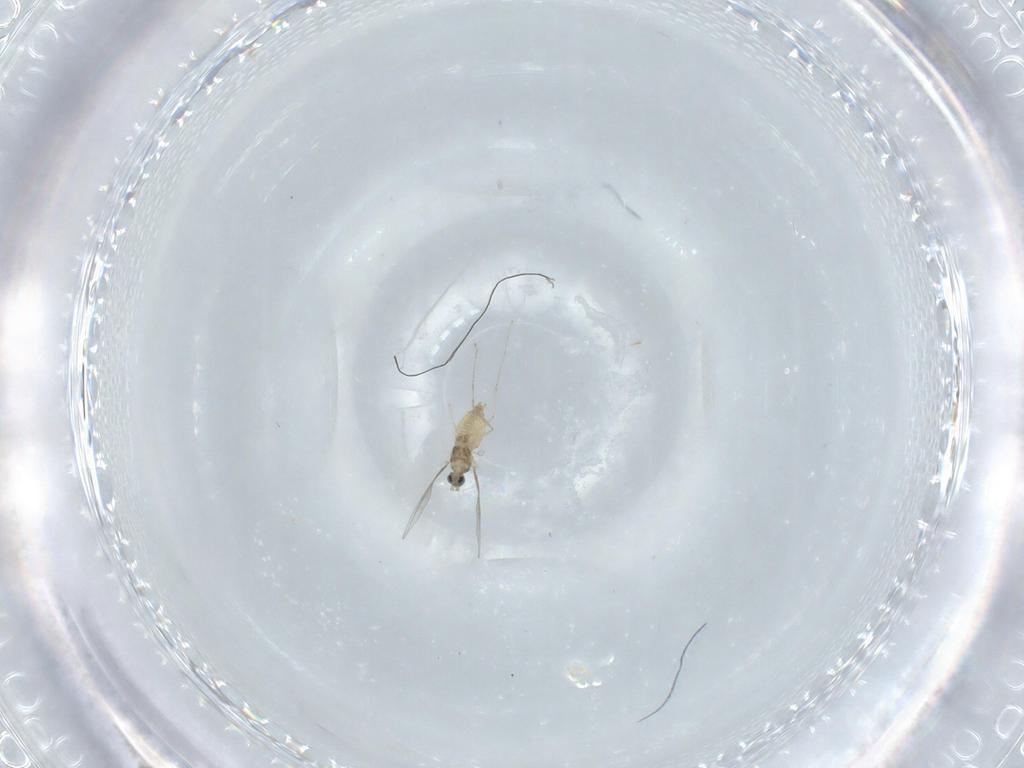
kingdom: Animalia
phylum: Arthropoda
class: Insecta
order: Diptera
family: Cecidomyiidae
